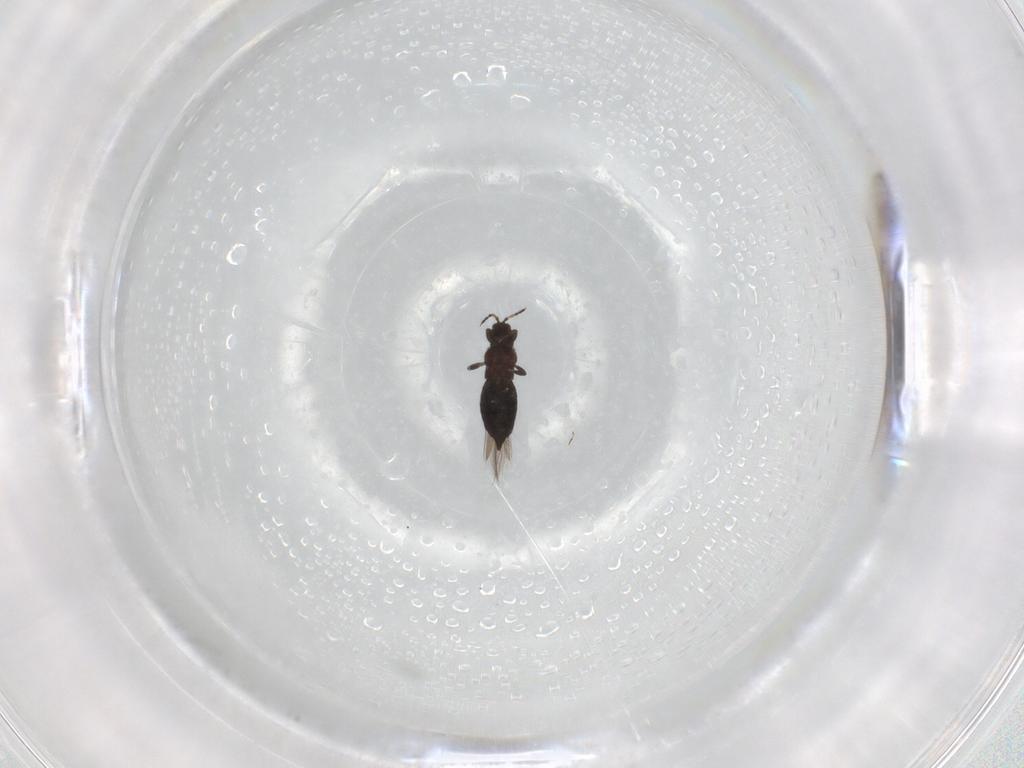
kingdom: Animalia
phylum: Arthropoda
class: Insecta
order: Thysanoptera
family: Thripidae
